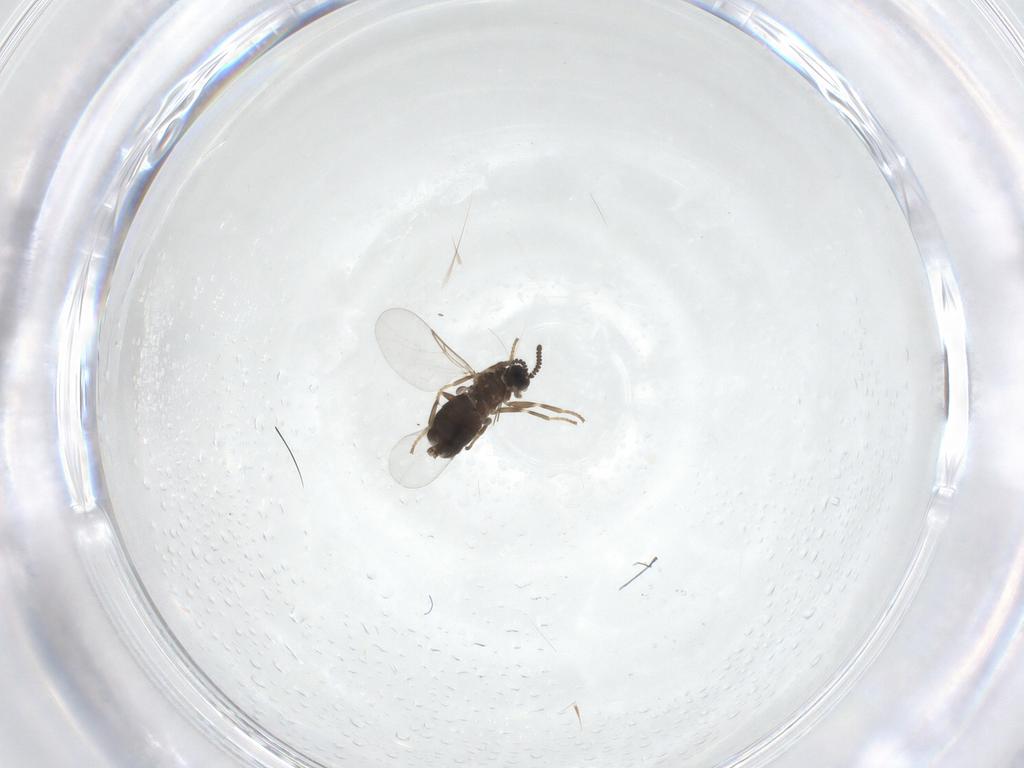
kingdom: Animalia
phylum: Arthropoda
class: Insecta
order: Diptera
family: Scatopsidae
